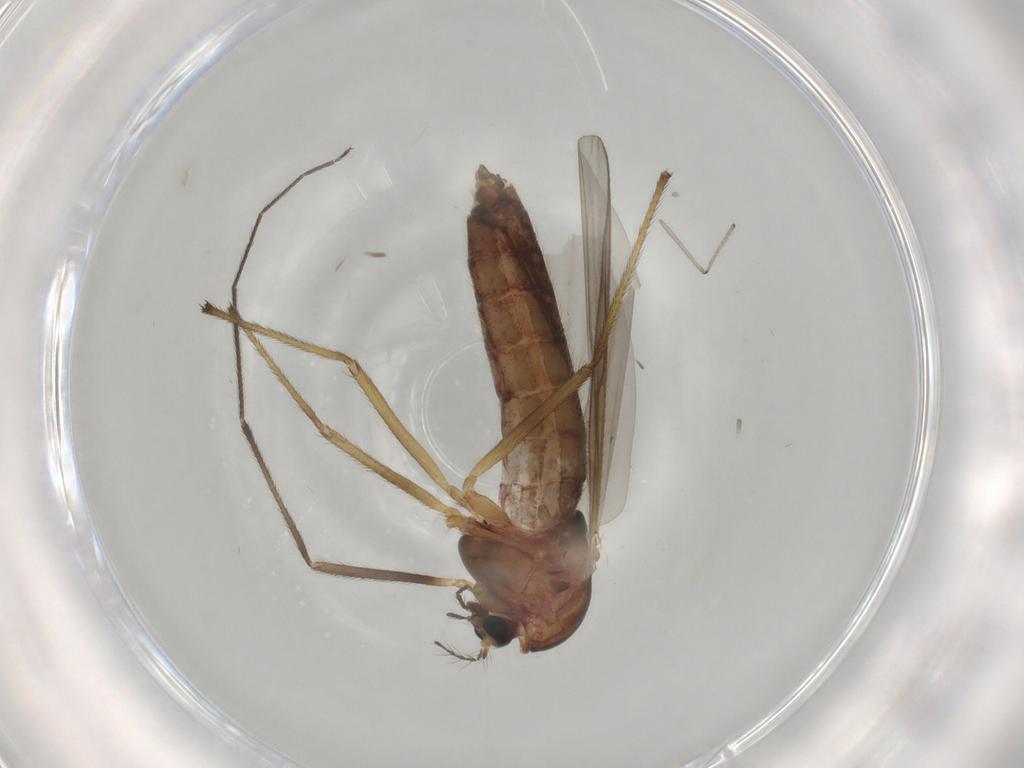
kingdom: Animalia
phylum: Arthropoda
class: Insecta
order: Diptera
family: Chironomidae
